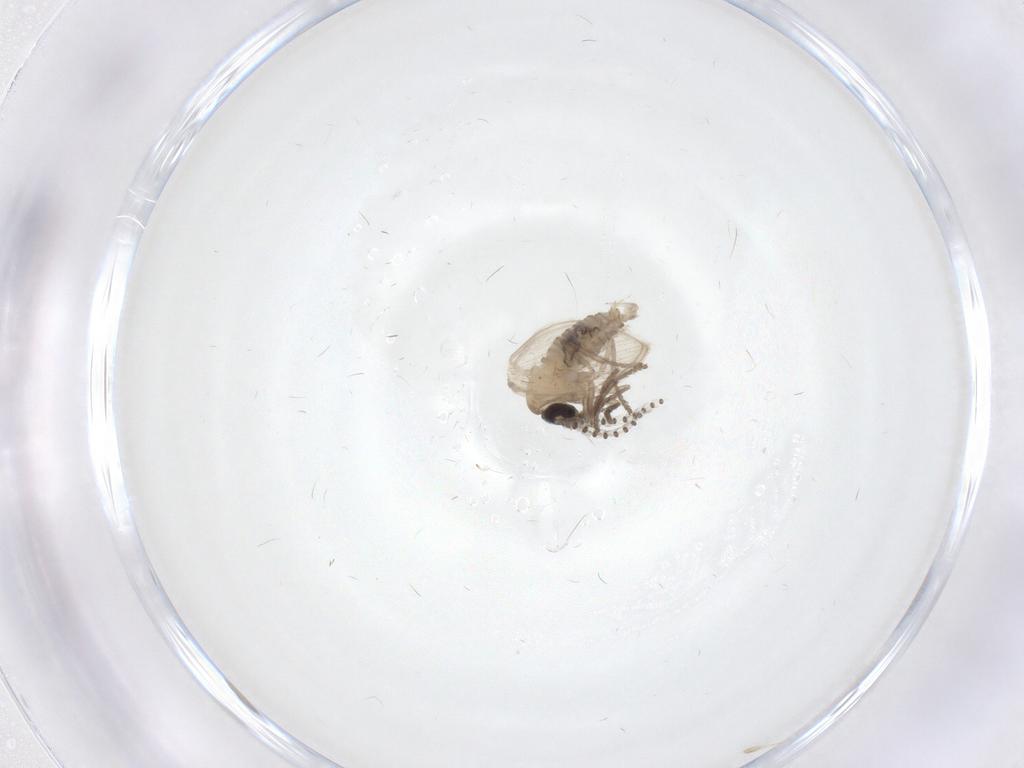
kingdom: Animalia
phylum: Arthropoda
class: Insecta
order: Diptera
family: Psychodidae
